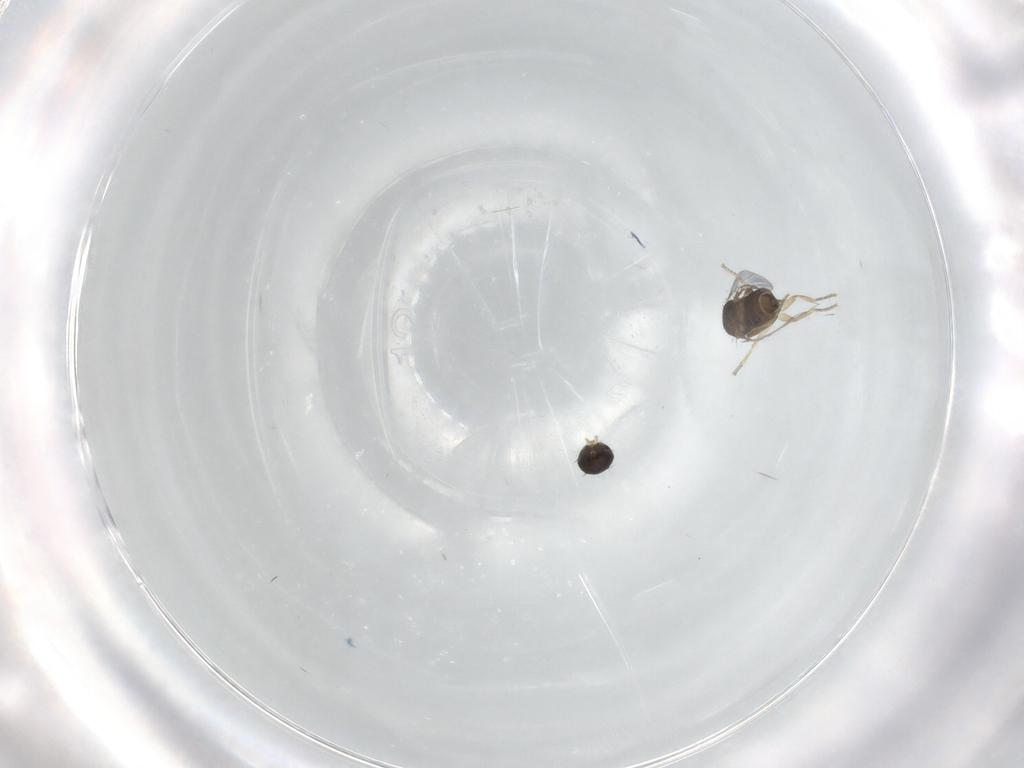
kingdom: Animalia
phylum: Arthropoda
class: Insecta
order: Diptera
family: Phoridae
